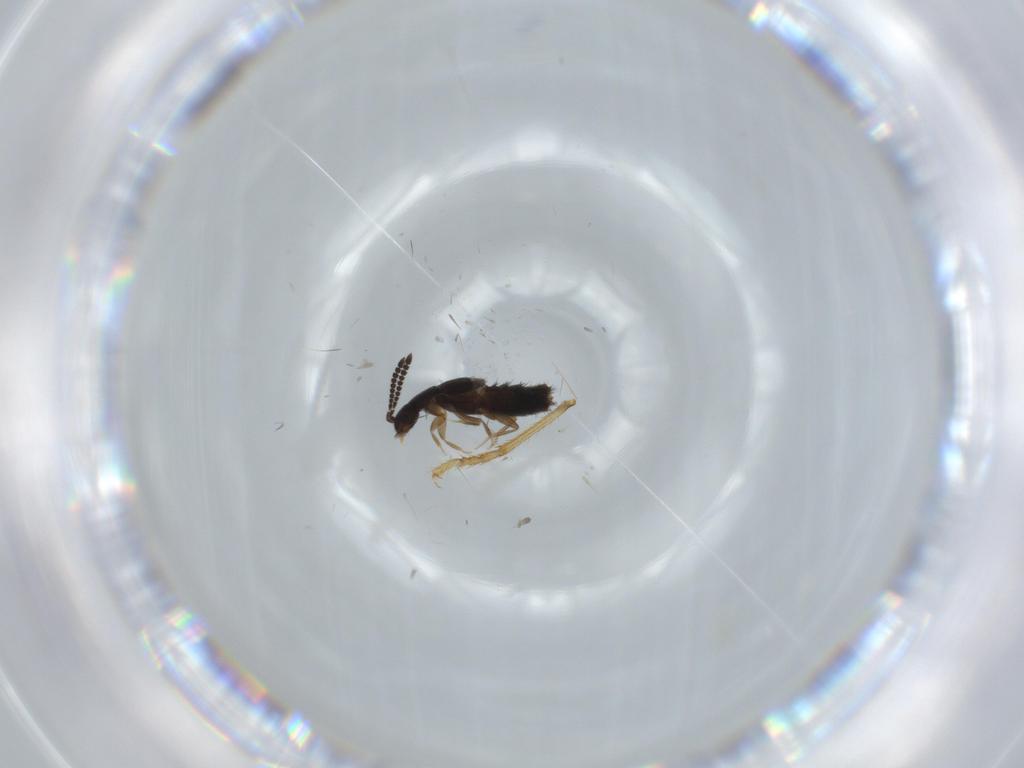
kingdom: Animalia
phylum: Arthropoda
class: Insecta
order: Coleoptera
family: Staphylinidae
